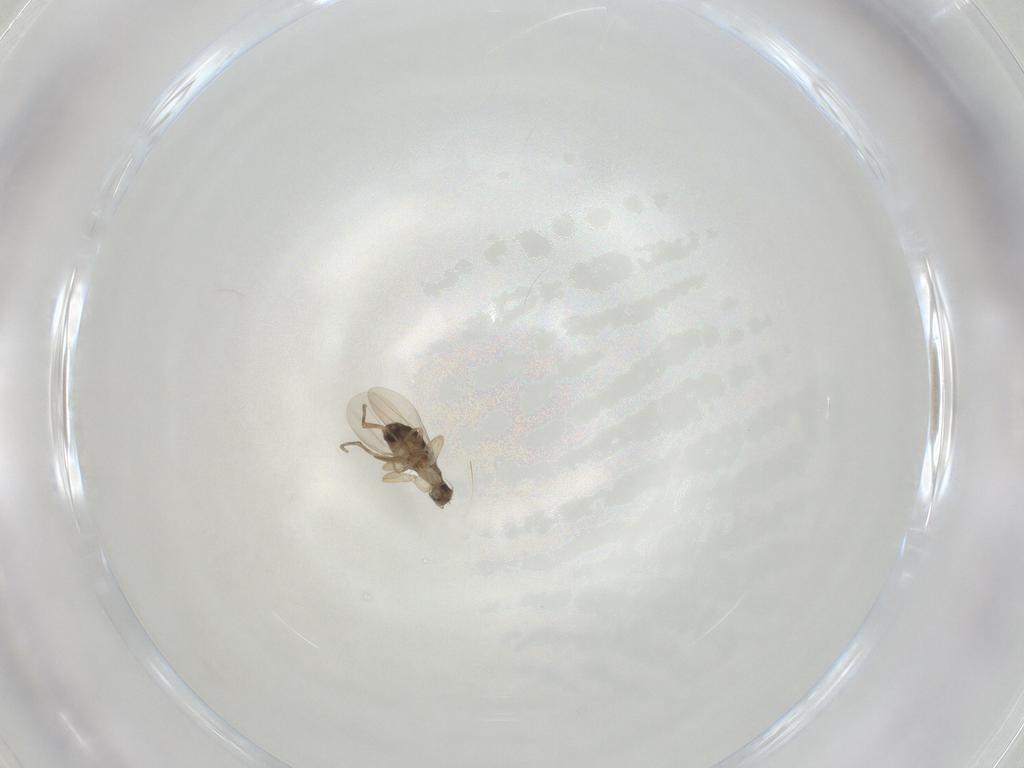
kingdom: Animalia
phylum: Arthropoda
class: Insecta
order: Diptera
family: Phoridae
